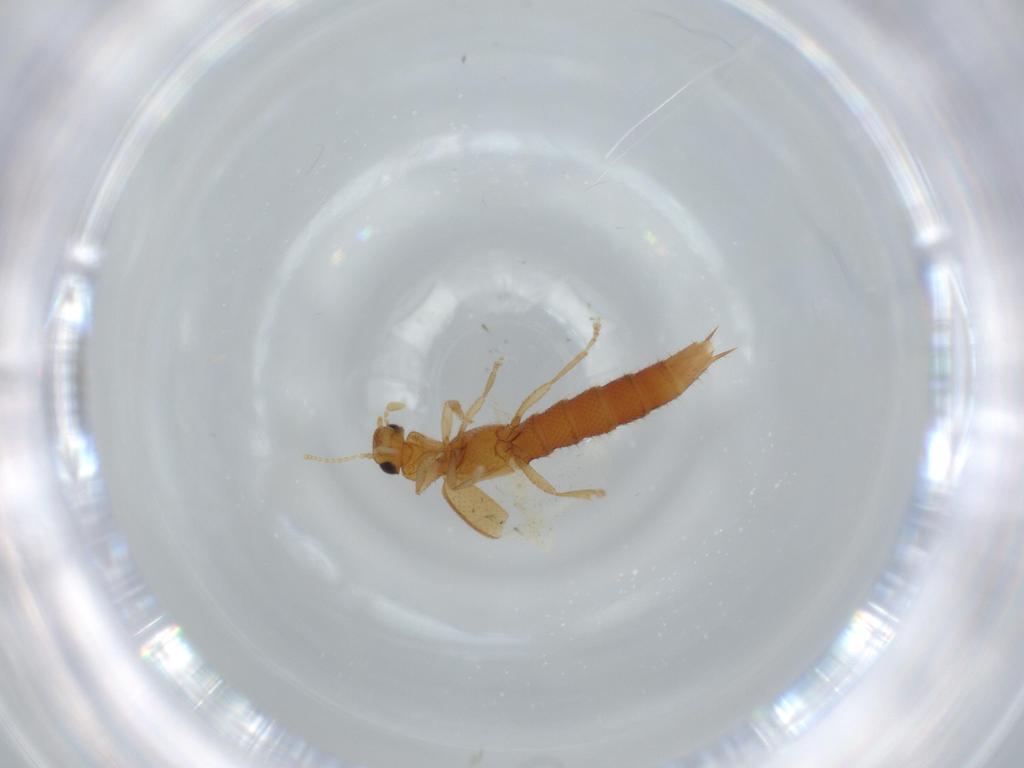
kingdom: Animalia
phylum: Arthropoda
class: Insecta
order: Coleoptera
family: Staphylinidae
